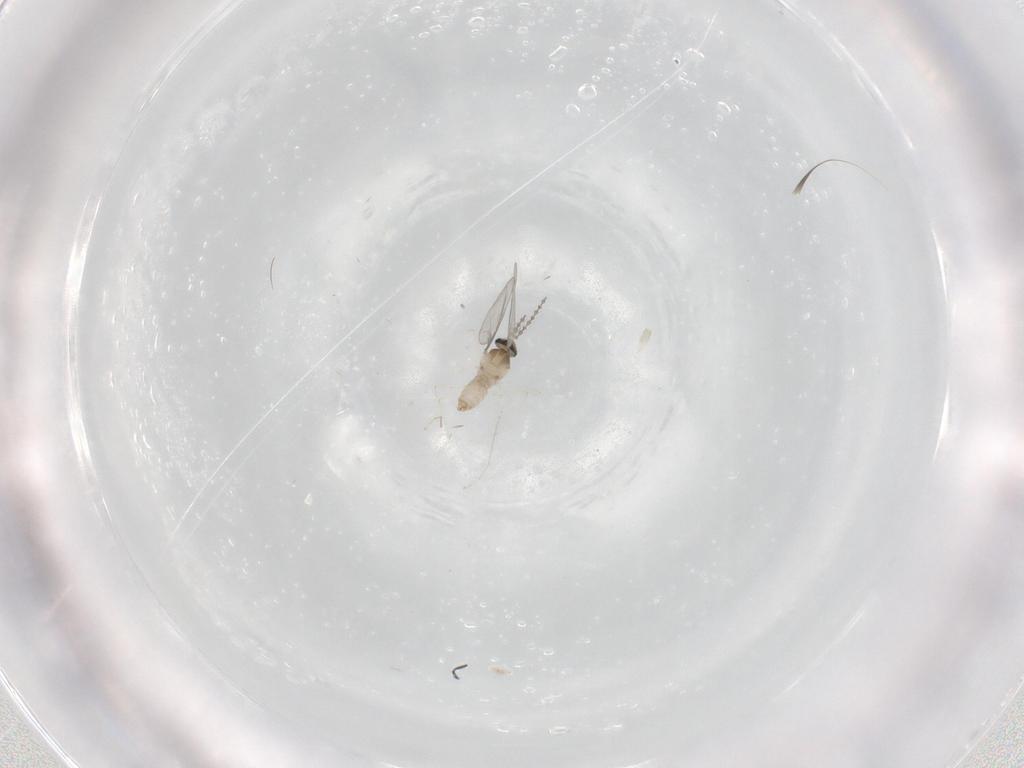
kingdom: Animalia
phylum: Arthropoda
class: Insecta
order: Diptera
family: Cecidomyiidae
